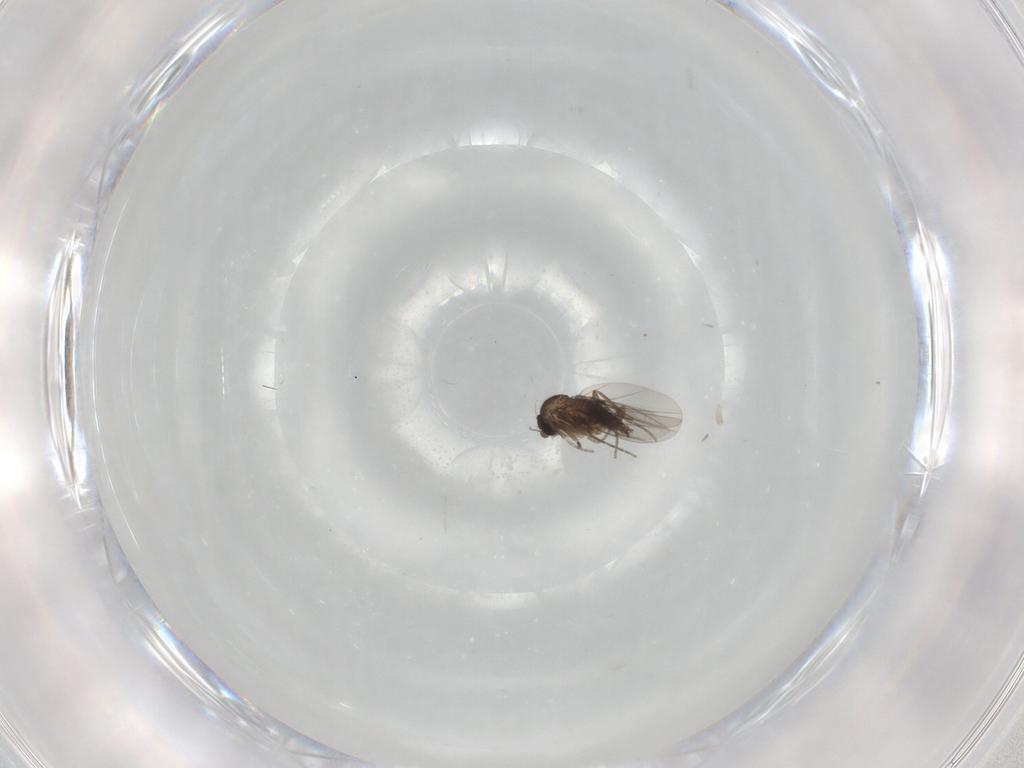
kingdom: Animalia
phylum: Arthropoda
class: Insecta
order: Diptera
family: Phoridae
